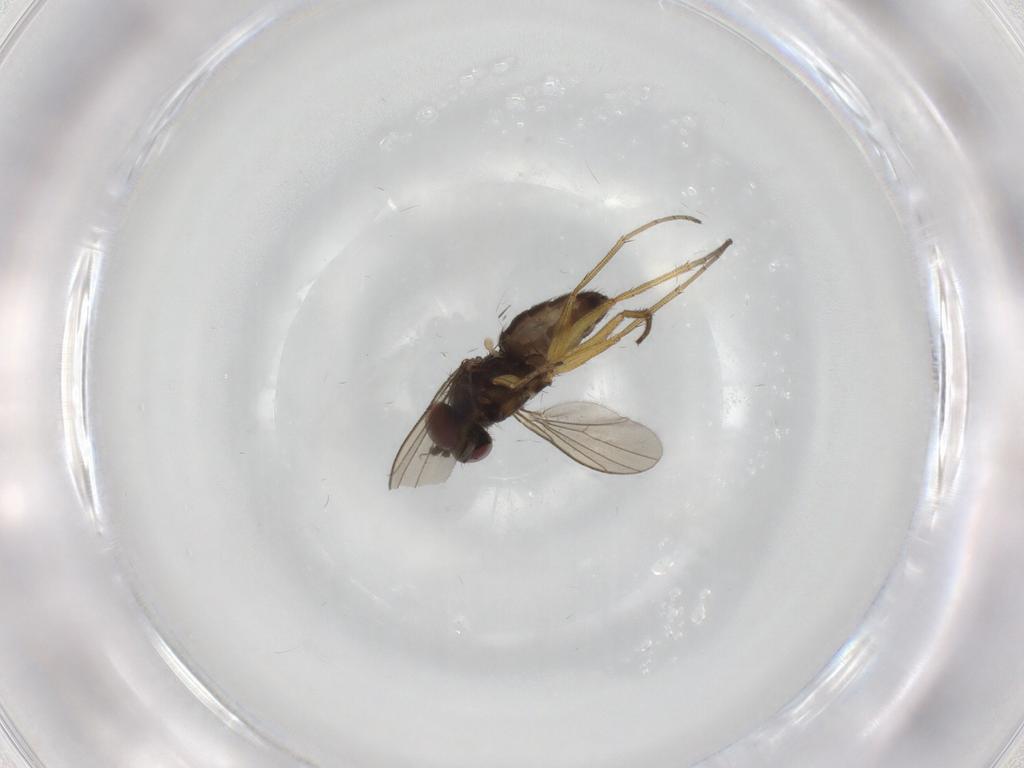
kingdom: Animalia
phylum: Arthropoda
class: Insecta
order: Diptera
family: Dolichopodidae
